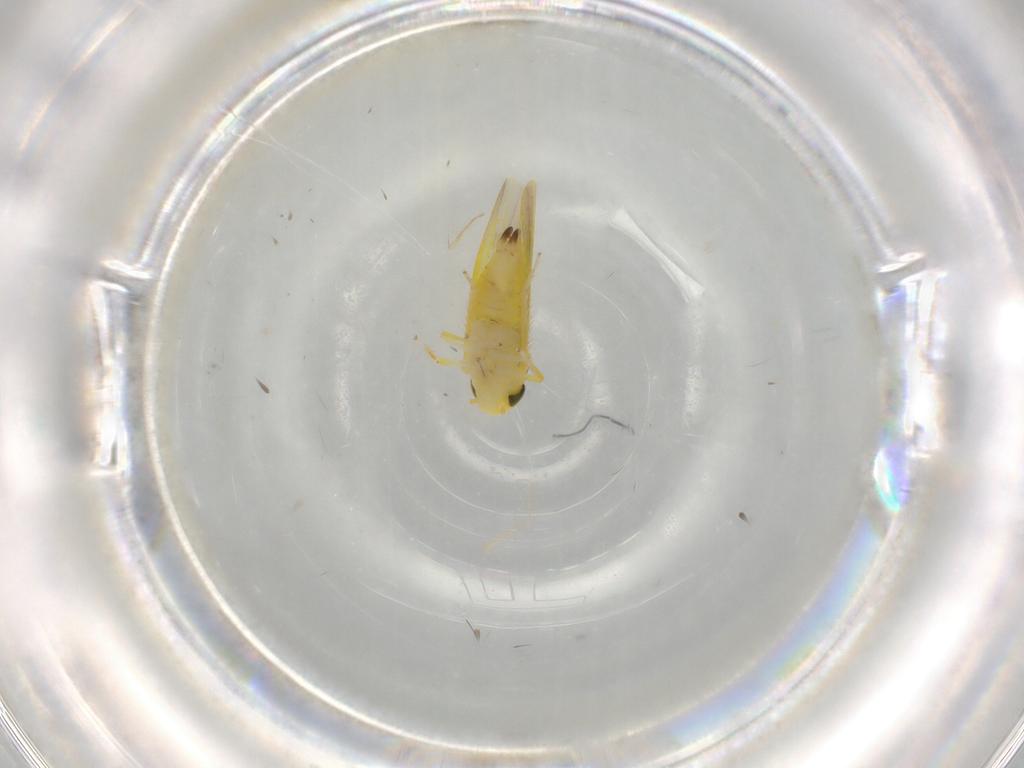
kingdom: Animalia
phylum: Arthropoda
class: Insecta
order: Hemiptera
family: Cicadellidae
